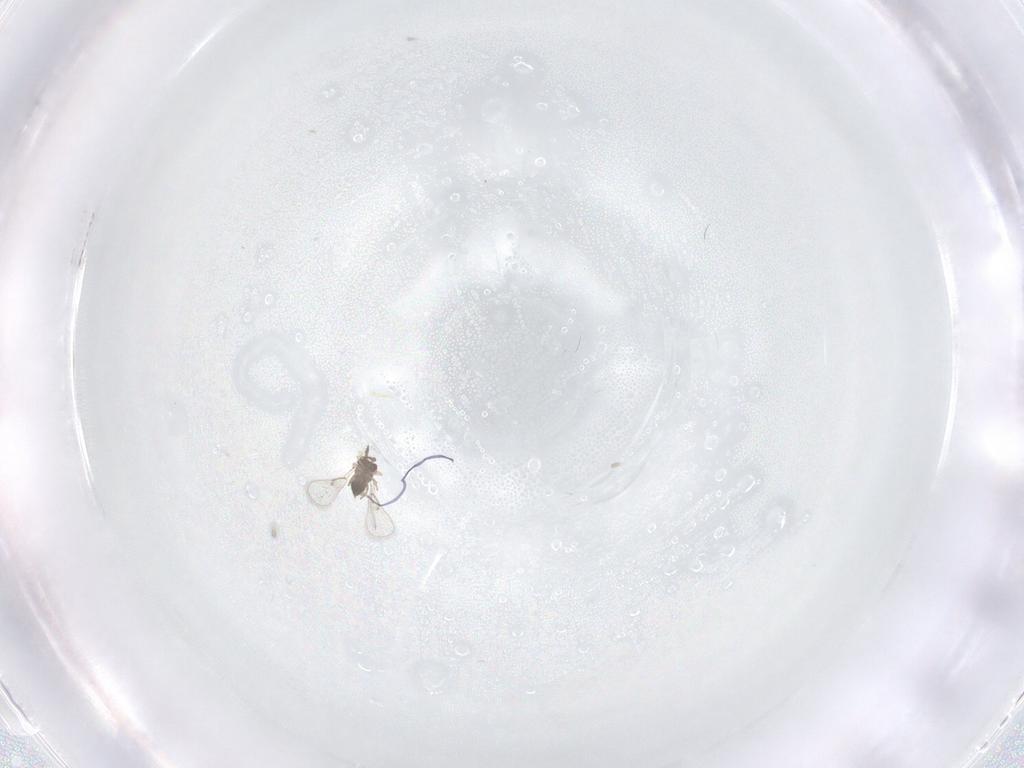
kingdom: Animalia
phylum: Arthropoda
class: Insecta
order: Hymenoptera
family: Trichogrammatidae
